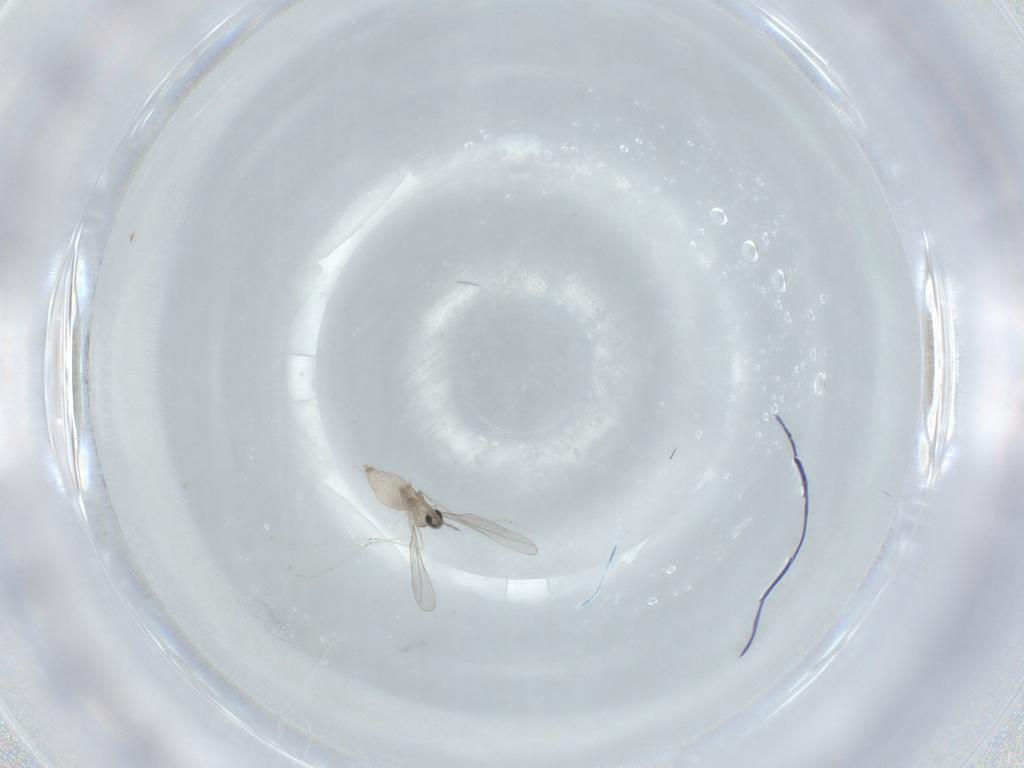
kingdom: Animalia
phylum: Arthropoda
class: Insecta
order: Diptera
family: Cecidomyiidae
